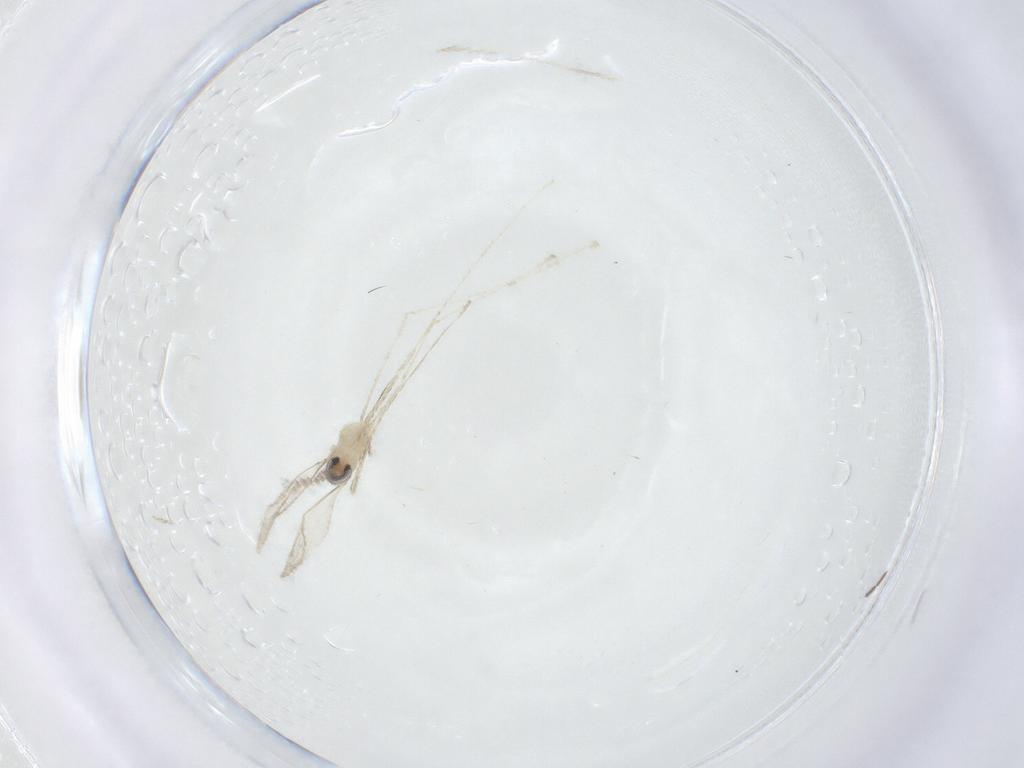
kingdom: Animalia
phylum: Arthropoda
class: Insecta
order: Diptera
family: Cecidomyiidae
